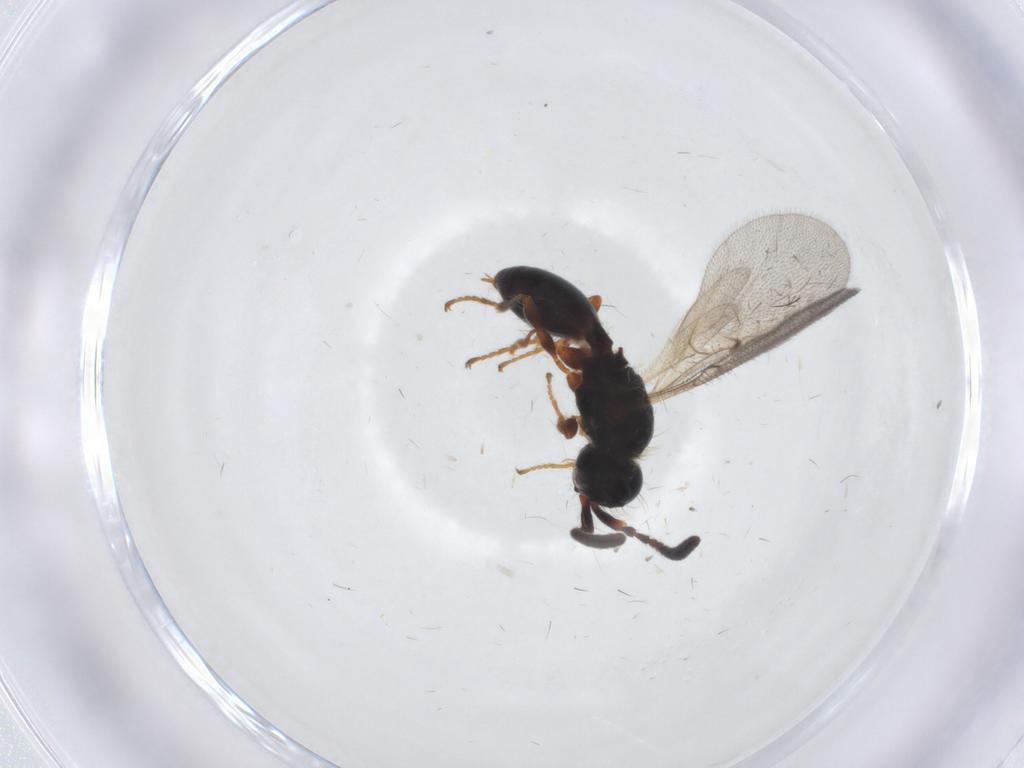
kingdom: Animalia
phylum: Arthropoda
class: Insecta
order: Hymenoptera
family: Diapriidae
